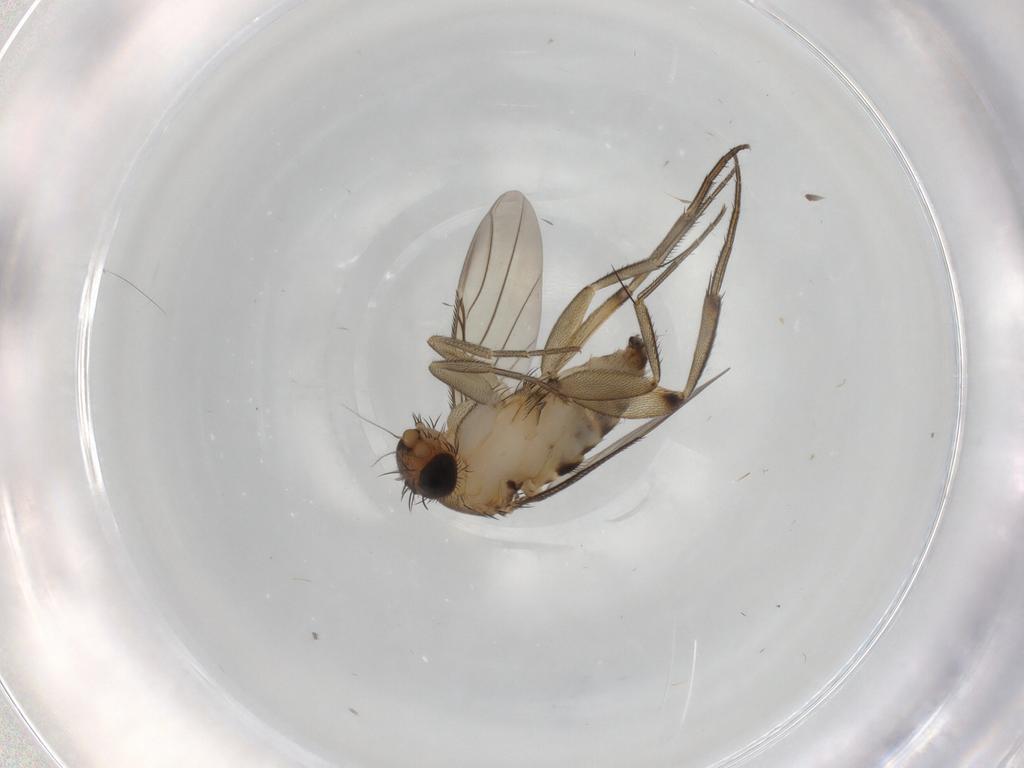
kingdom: Animalia
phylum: Arthropoda
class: Insecta
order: Diptera
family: Phoridae
